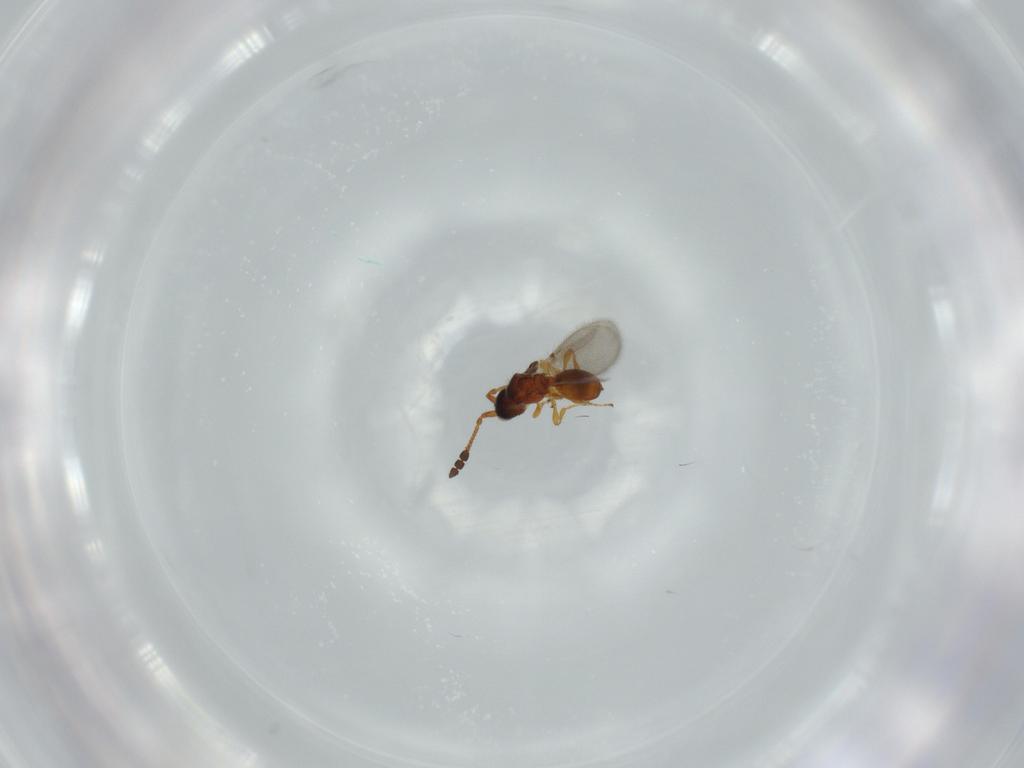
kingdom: Animalia
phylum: Arthropoda
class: Insecta
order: Hymenoptera
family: Diapriidae
